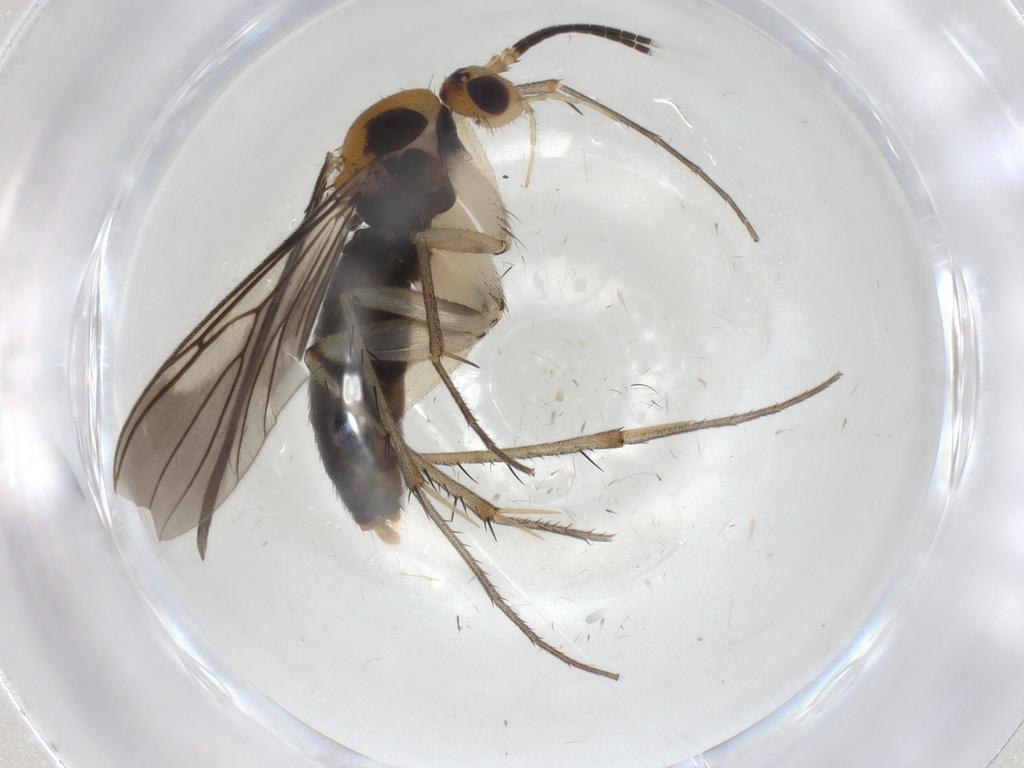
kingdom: Animalia
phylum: Arthropoda
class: Insecta
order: Diptera
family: Mycetophilidae
